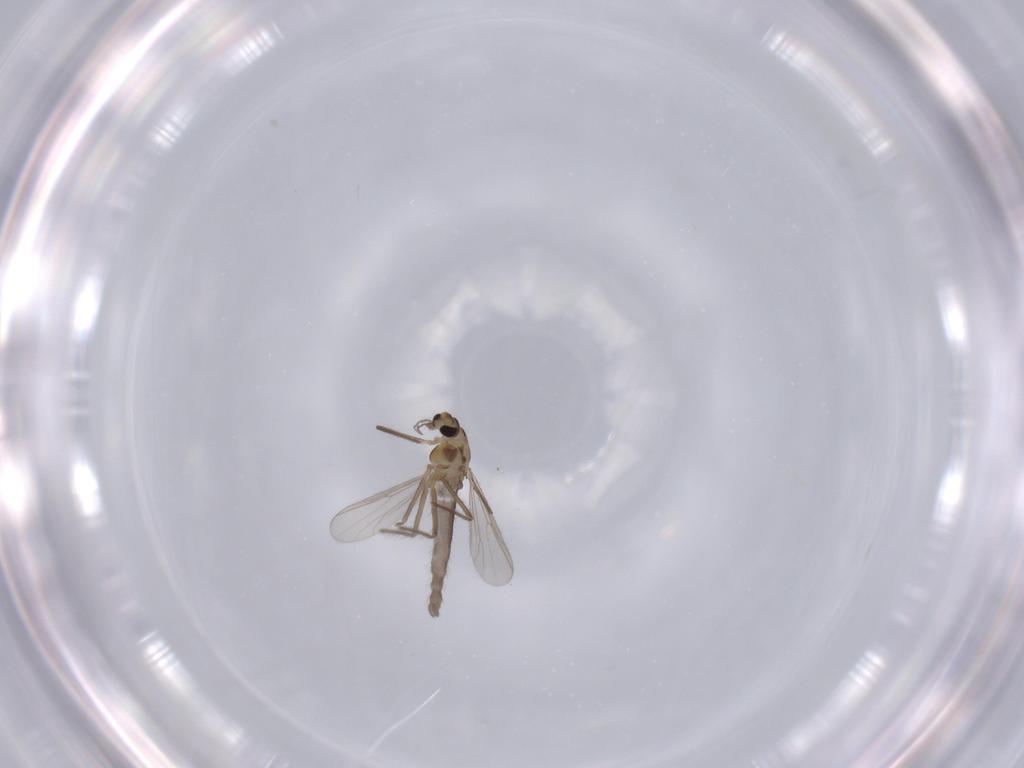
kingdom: Animalia
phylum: Arthropoda
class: Insecta
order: Diptera
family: Sciaridae
